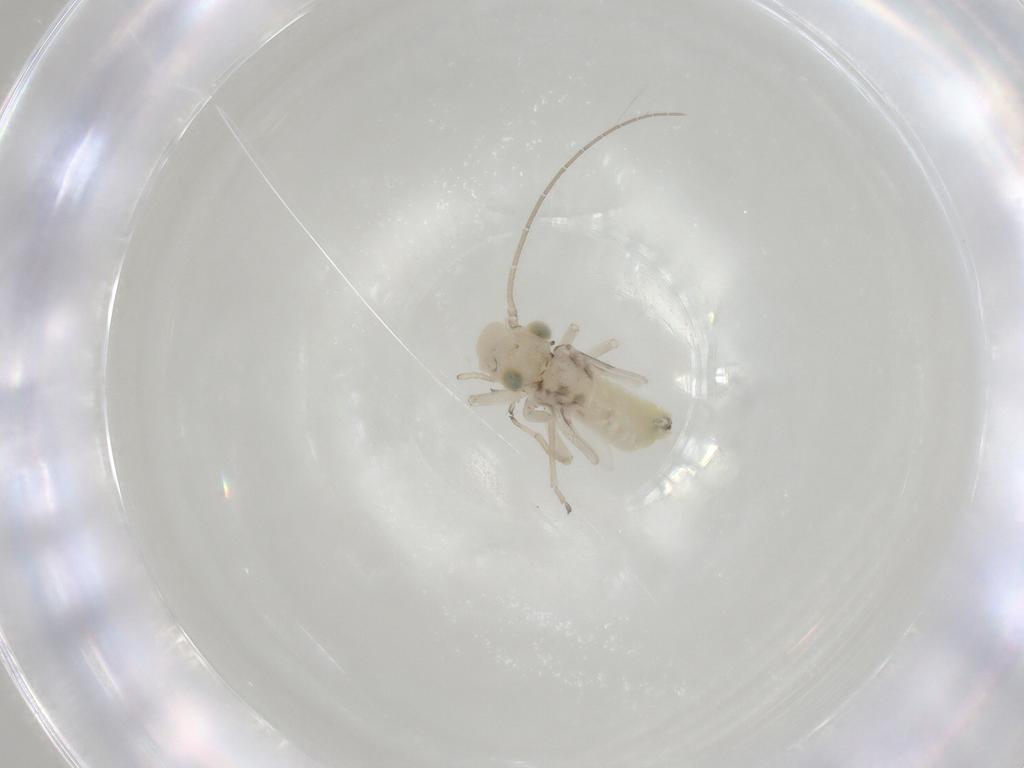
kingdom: Animalia
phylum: Arthropoda
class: Insecta
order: Psocodea
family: Caeciliusidae
